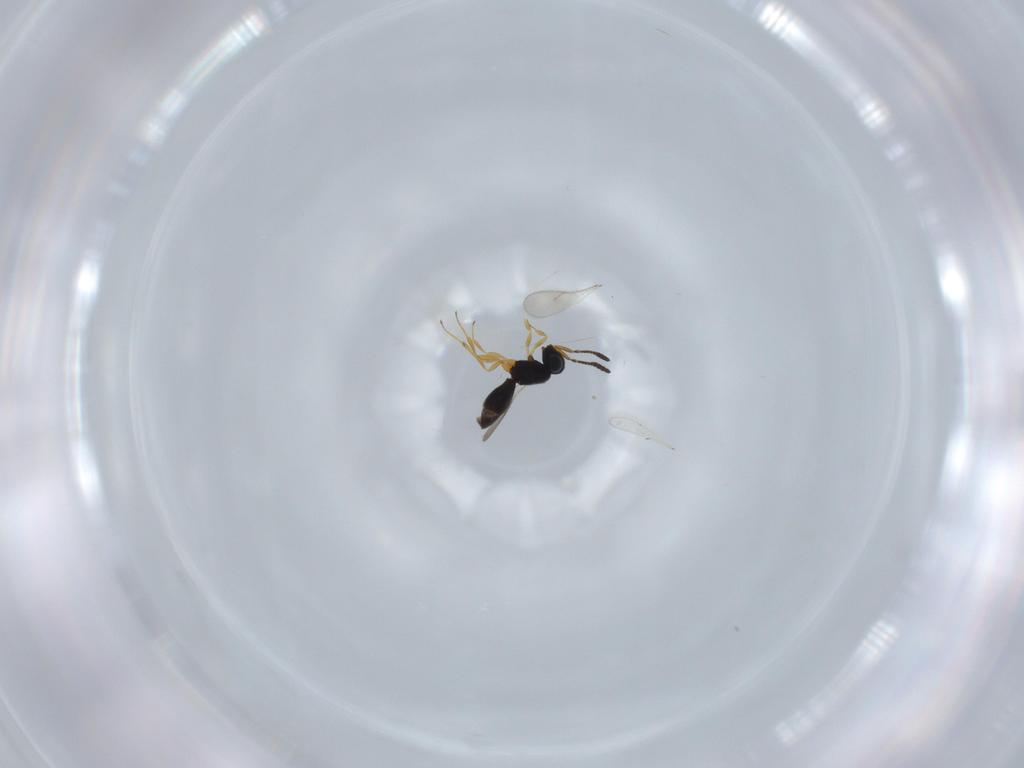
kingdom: Animalia
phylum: Arthropoda
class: Insecta
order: Hymenoptera
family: Scelionidae
